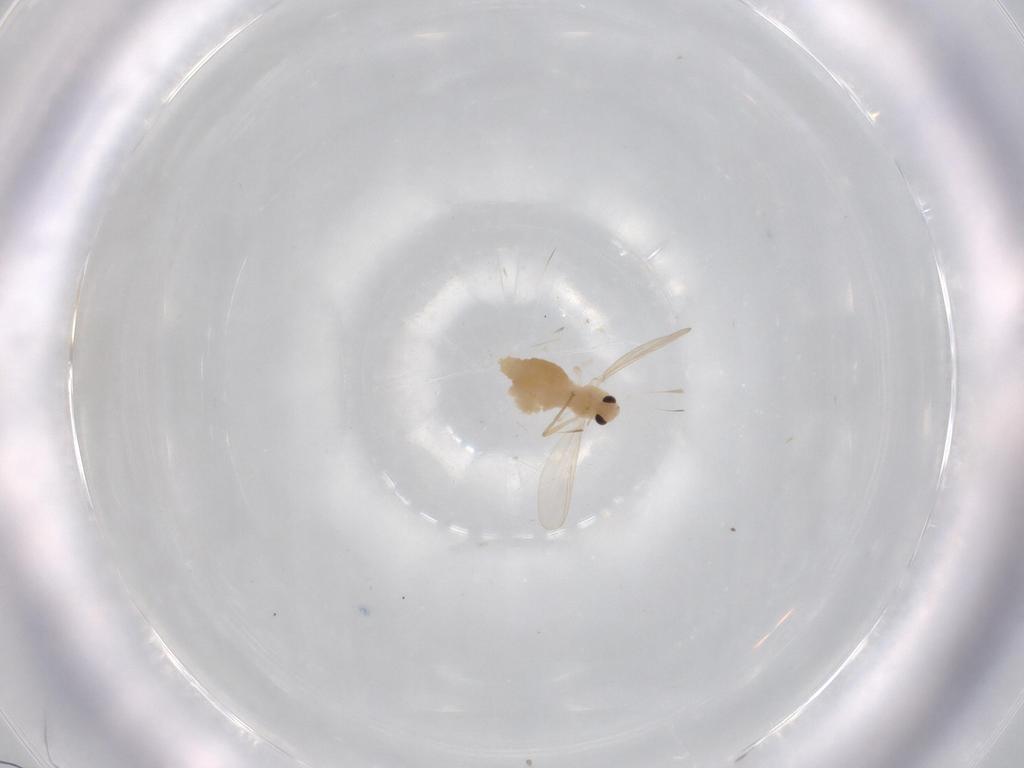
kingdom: Animalia
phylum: Arthropoda
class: Insecta
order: Diptera
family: Chironomidae
